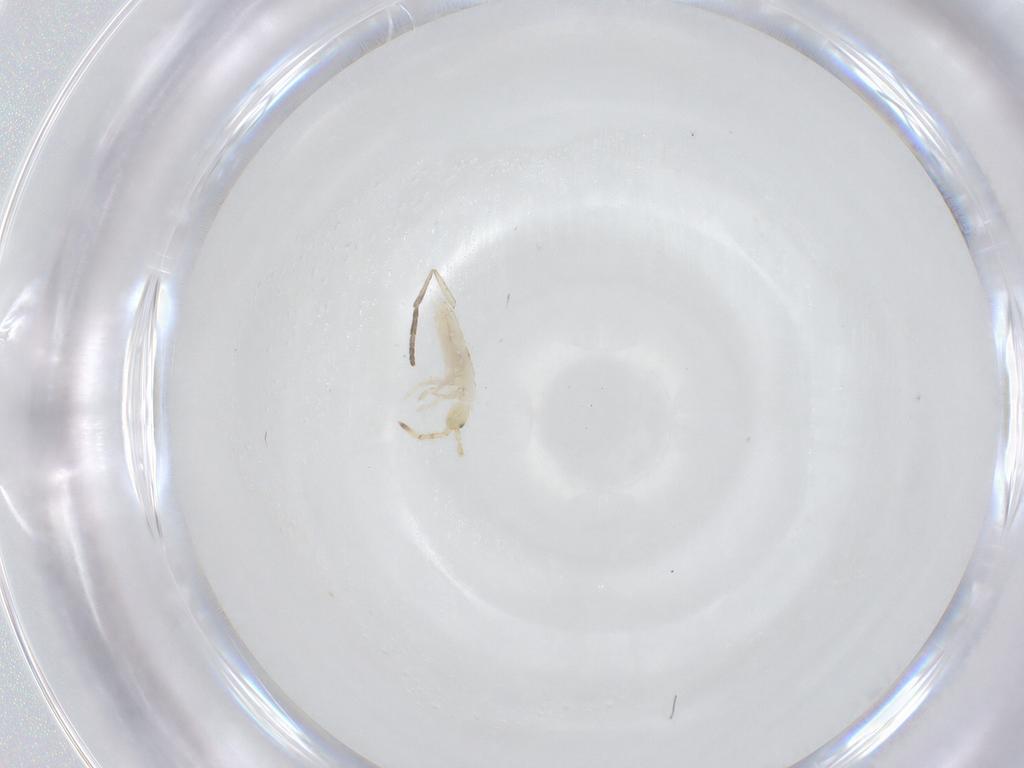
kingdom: Animalia
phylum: Arthropoda
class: Collembola
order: Entomobryomorpha
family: Entomobryidae
